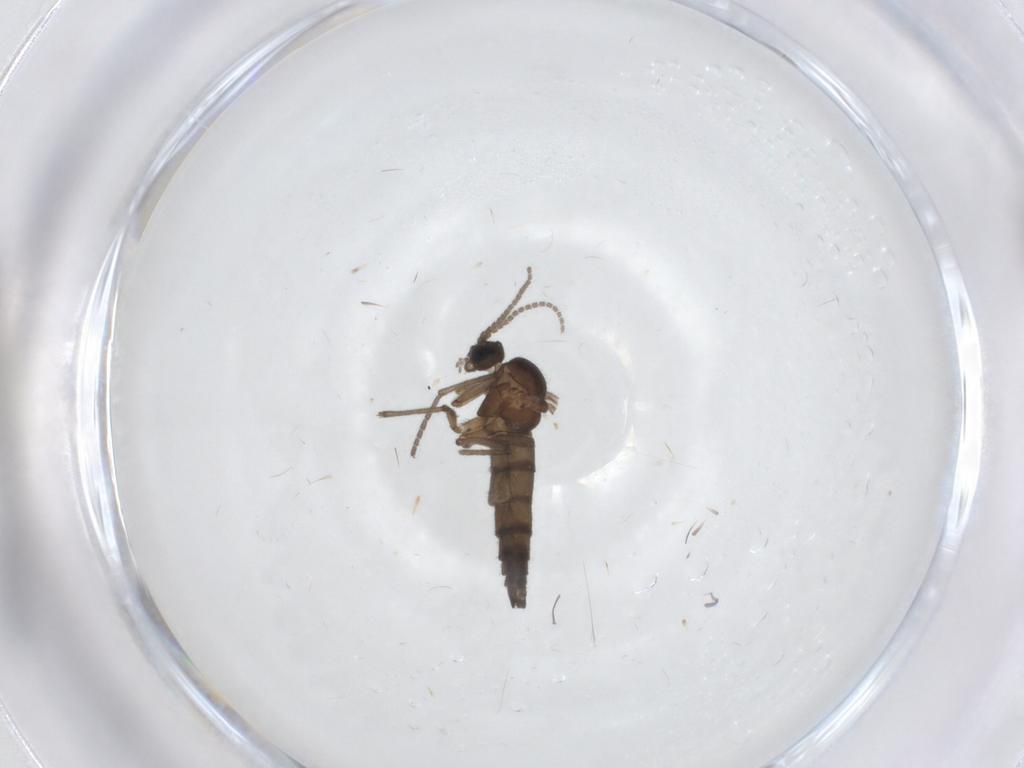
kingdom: Animalia
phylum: Arthropoda
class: Insecta
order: Diptera
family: Sciaridae
